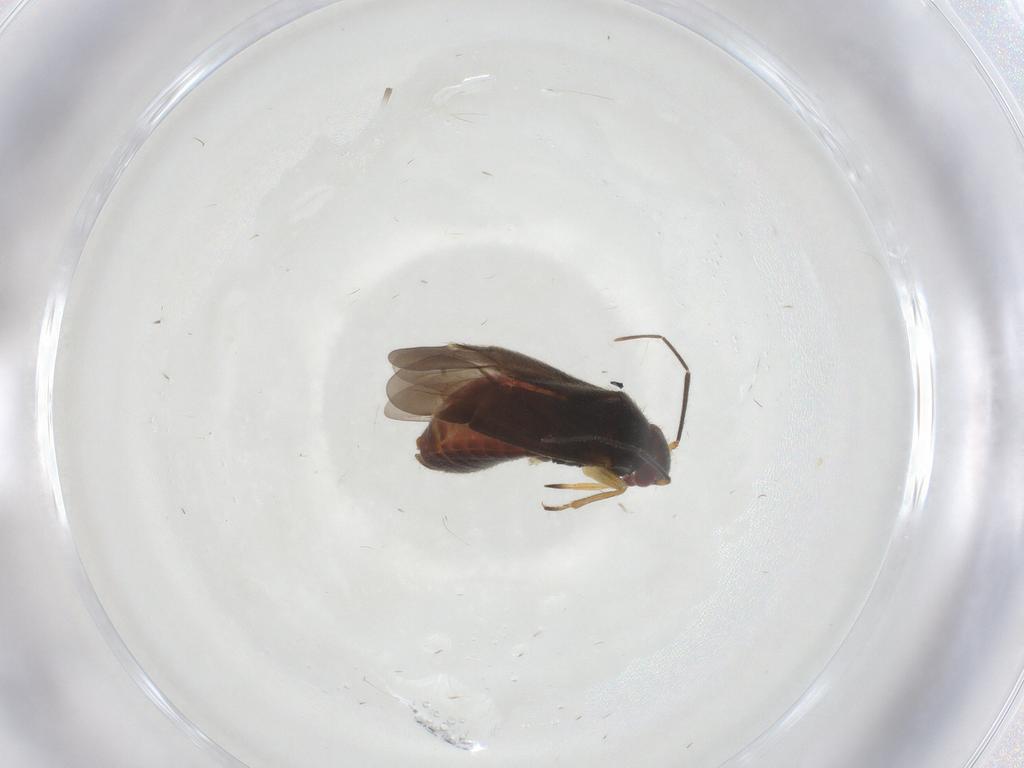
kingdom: Animalia
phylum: Arthropoda
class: Insecta
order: Hemiptera
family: Miridae
